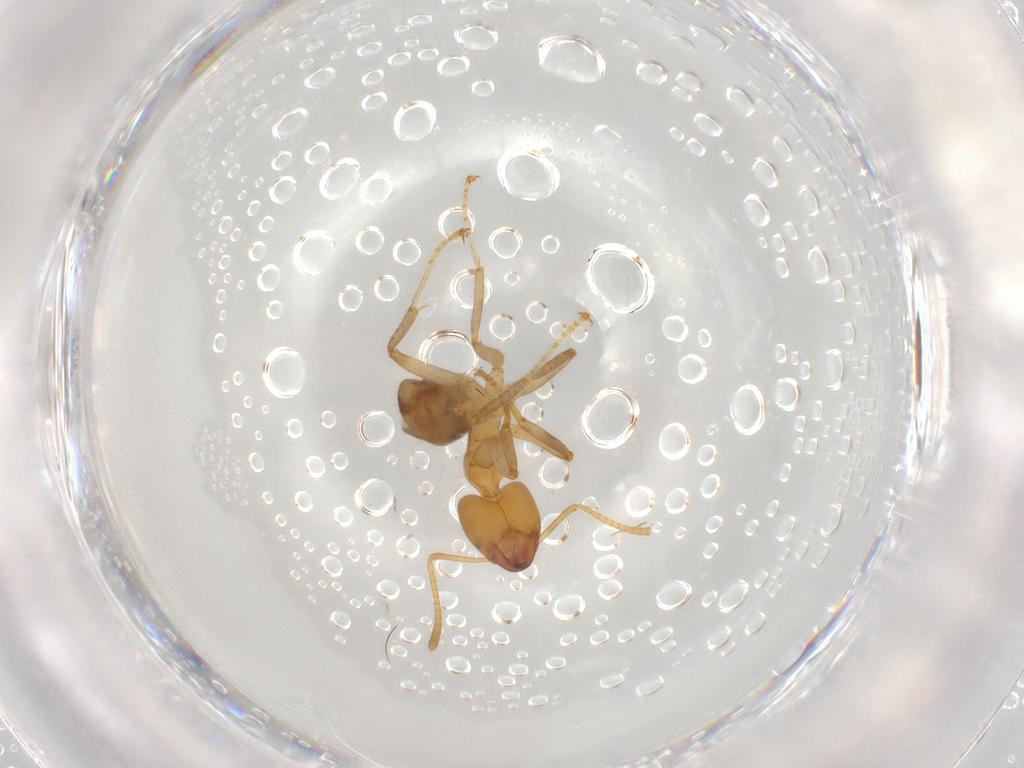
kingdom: Animalia
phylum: Arthropoda
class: Insecta
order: Hymenoptera
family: Formicidae
